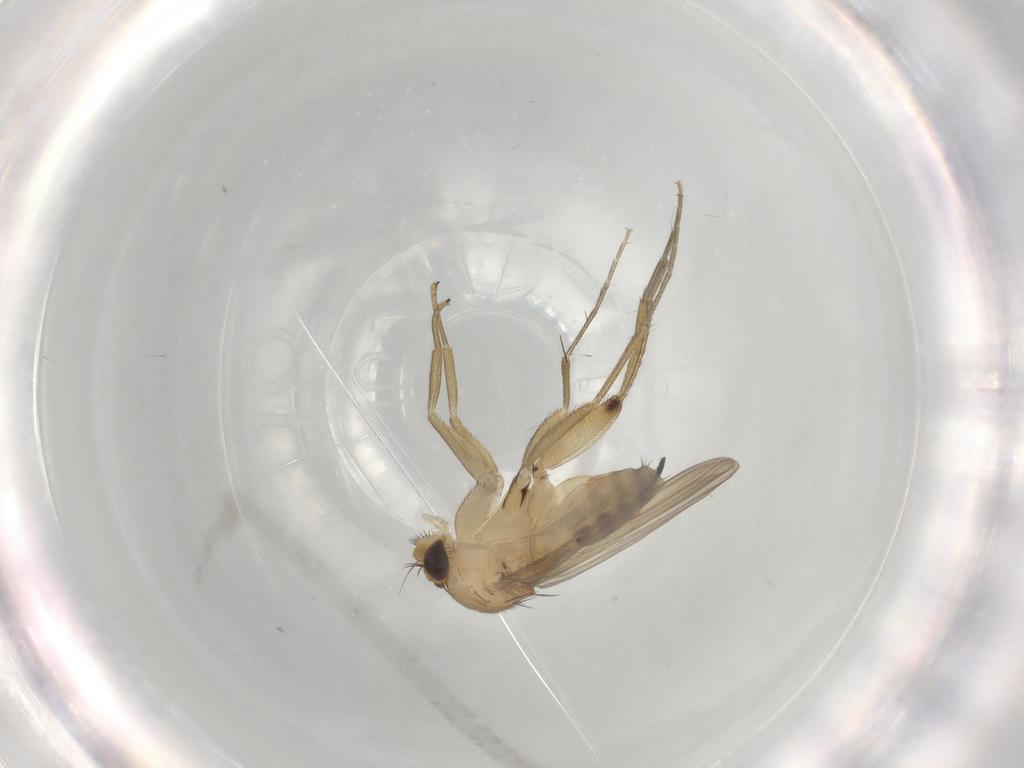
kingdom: Animalia
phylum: Arthropoda
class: Insecta
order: Diptera
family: Phoridae
